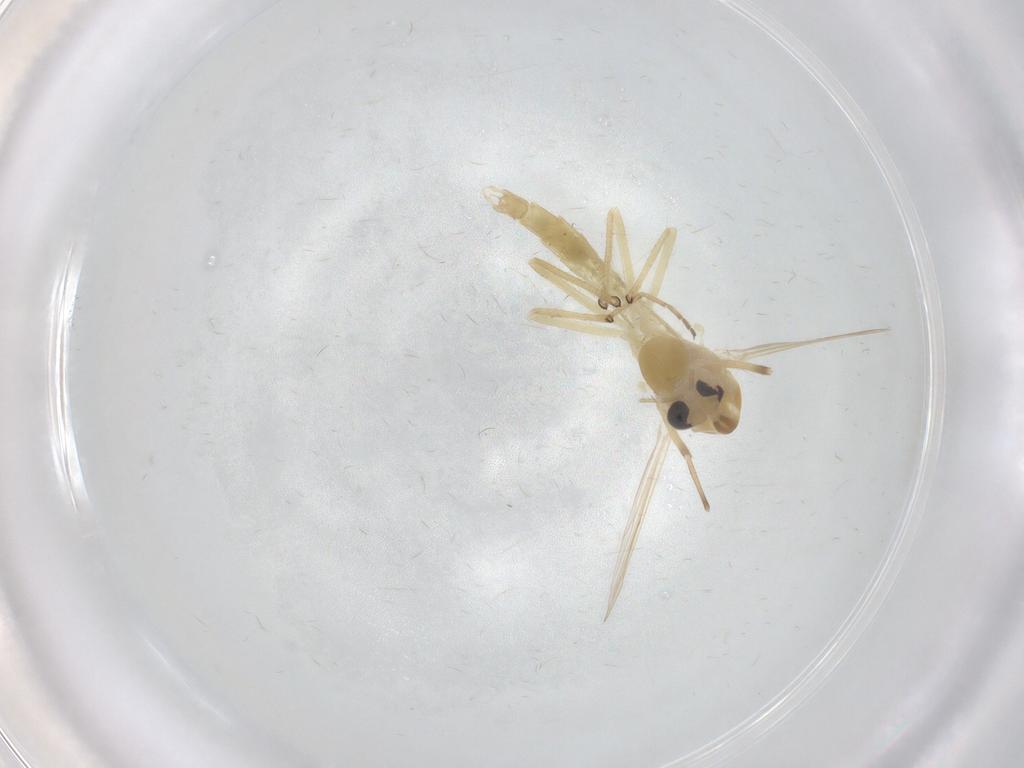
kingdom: Animalia
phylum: Arthropoda
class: Insecta
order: Diptera
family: Chironomidae
